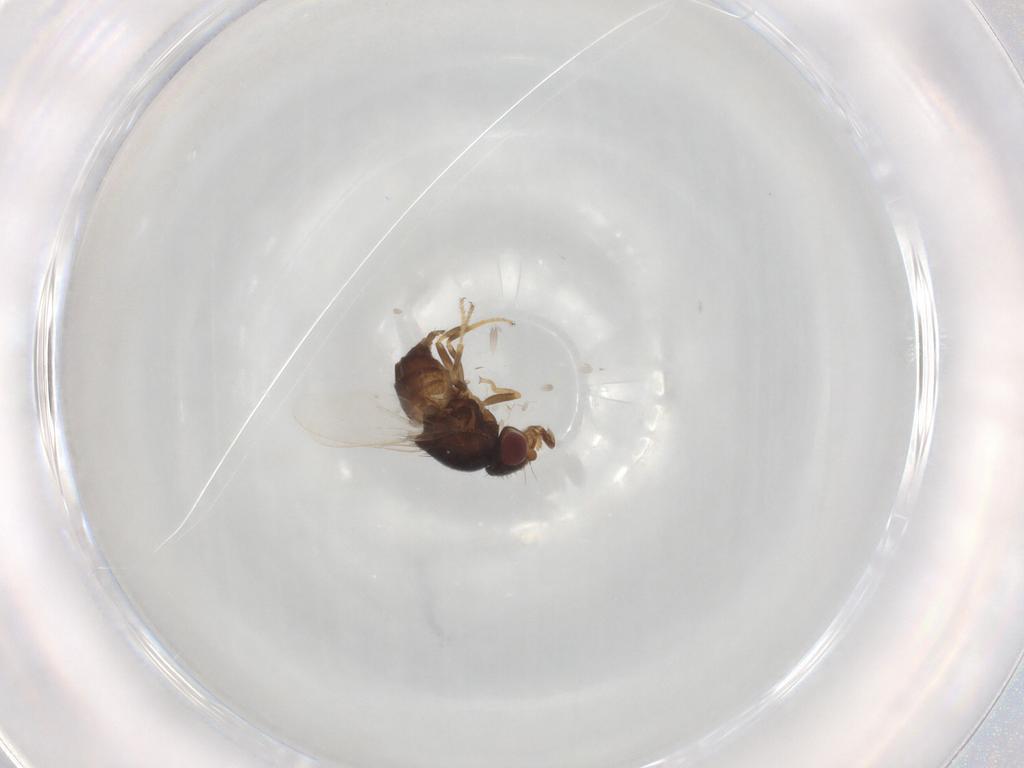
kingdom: Animalia
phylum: Arthropoda
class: Insecta
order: Diptera
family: Chloropidae
